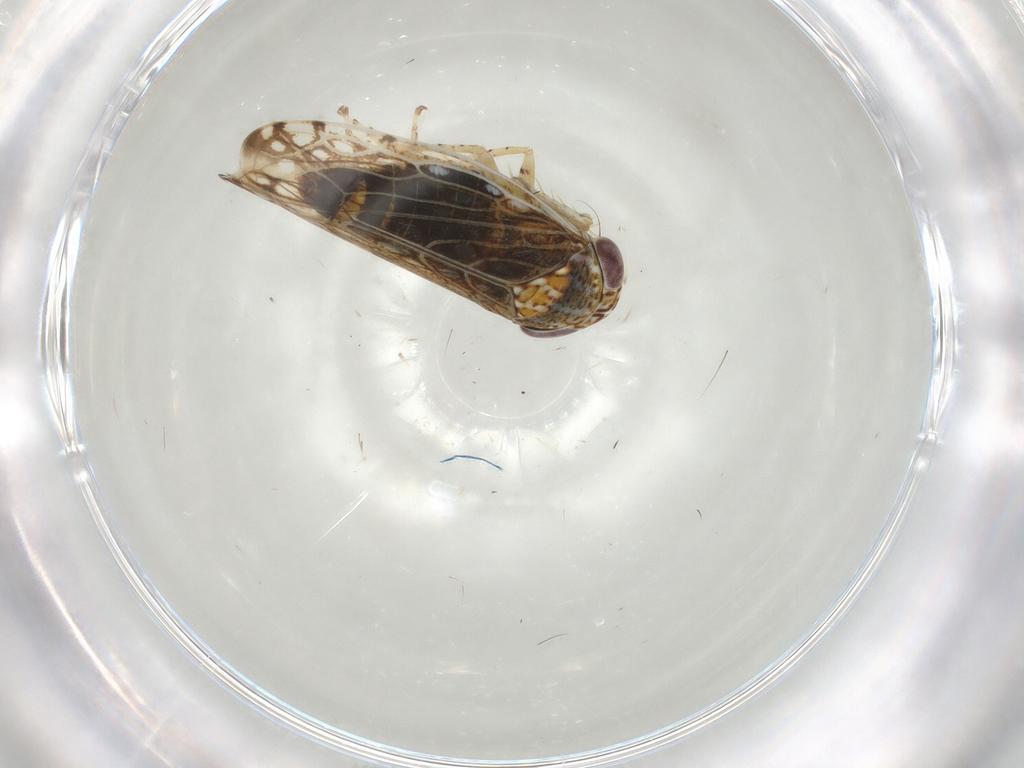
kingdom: Animalia
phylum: Arthropoda
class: Insecta
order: Hemiptera
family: Cicadellidae
